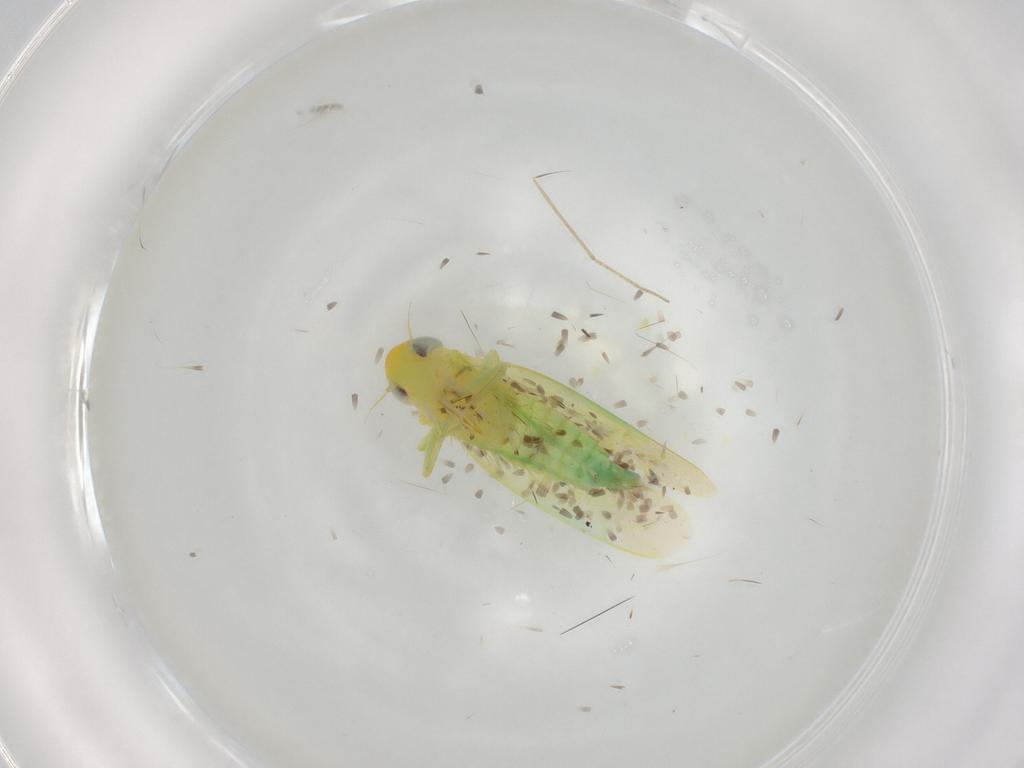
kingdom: Animalia
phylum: Arthropoda
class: Insecta
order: Hemiptera
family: Cicadellidae
